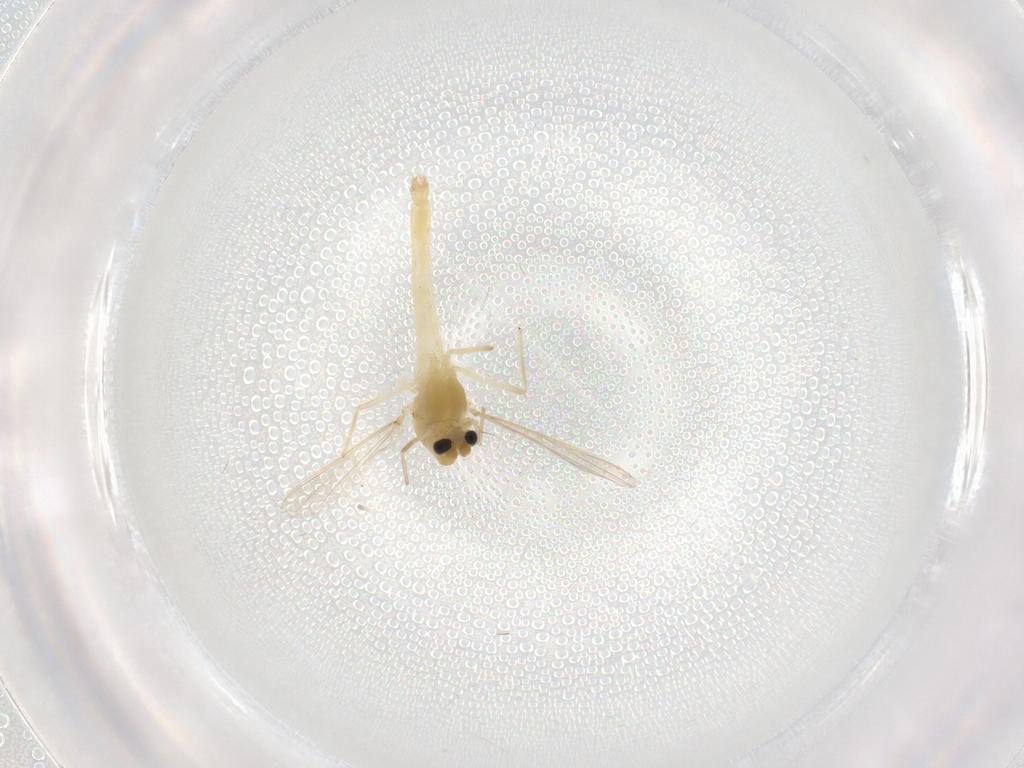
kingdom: Animalia
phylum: Arthropoda
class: Insecta
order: Diptera
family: Chironomidae
